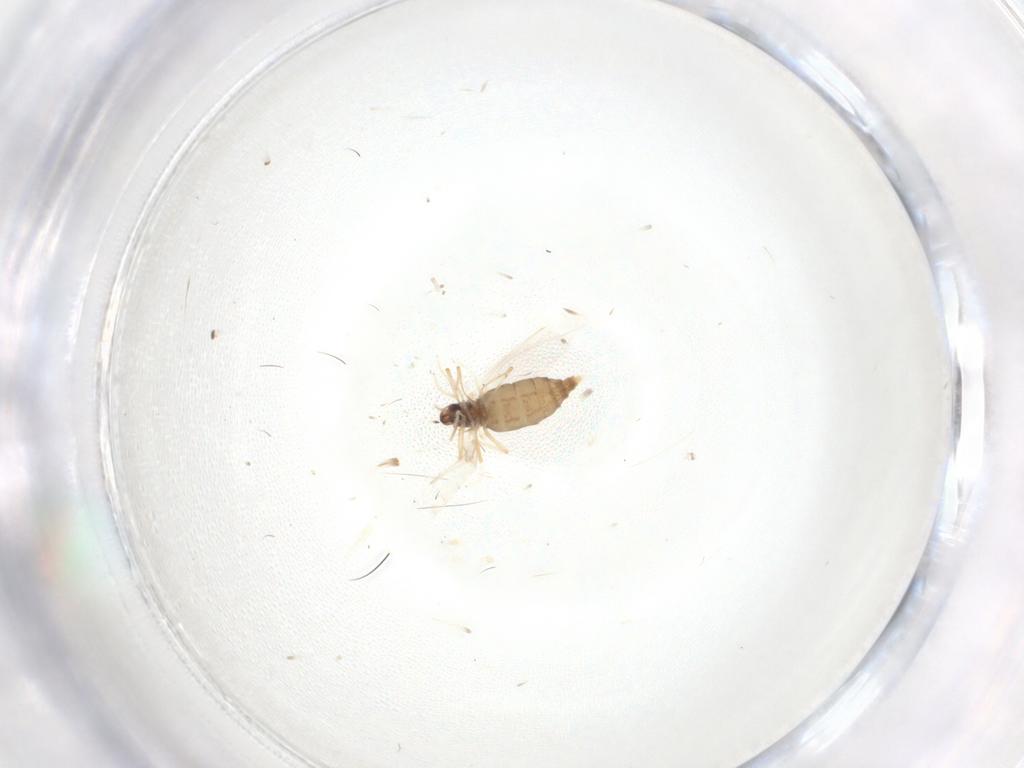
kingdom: Animalia
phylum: Arthropoda
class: Insecta
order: Diptera
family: Cecidomyiidae
